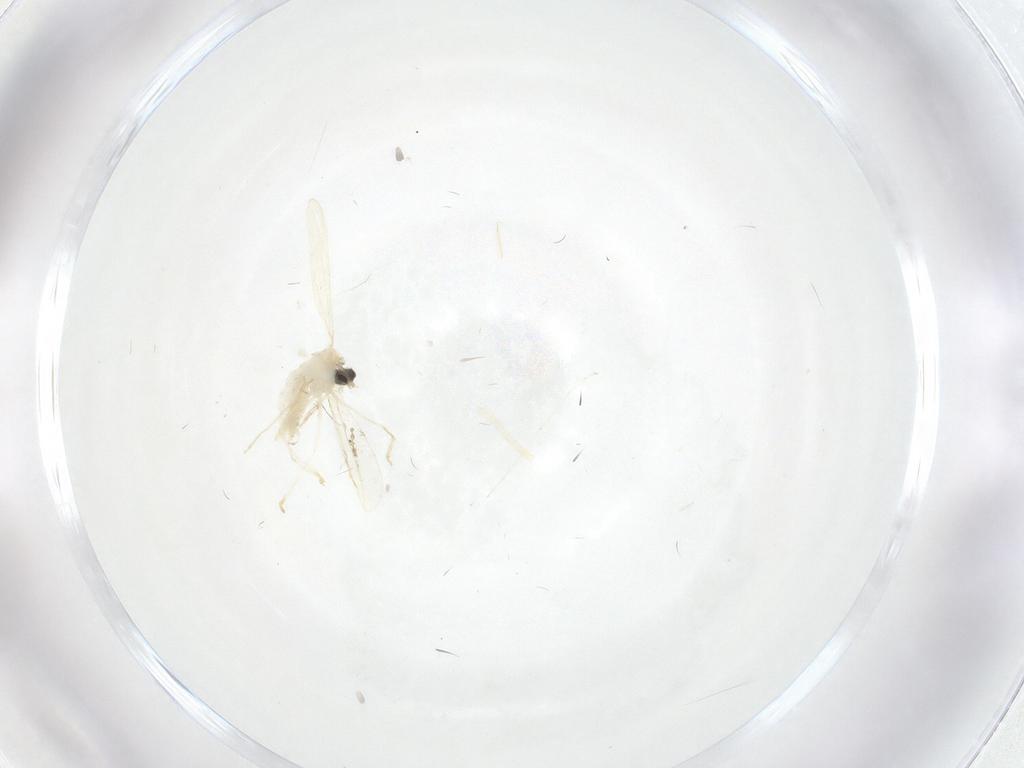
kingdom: Animalia
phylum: Arthropoda
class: Insecta
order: Diptera
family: Cecidomyiidae
